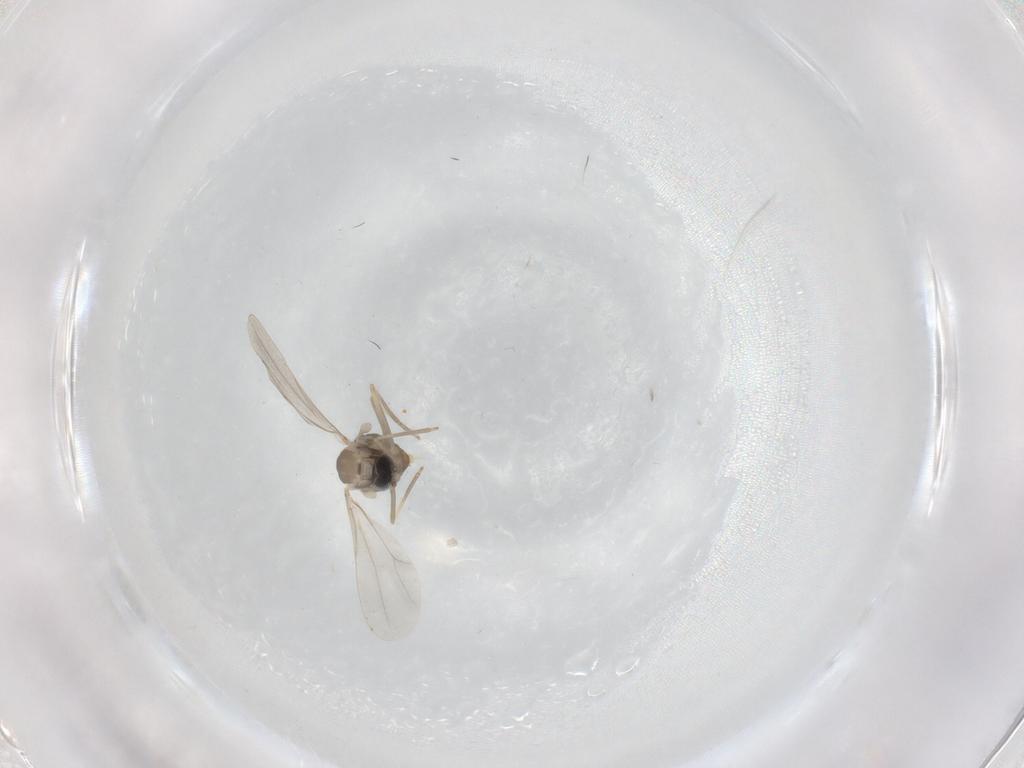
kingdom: Animalia
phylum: Arthropoda
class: Insecta
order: Diptera
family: Cecidomyiidae
